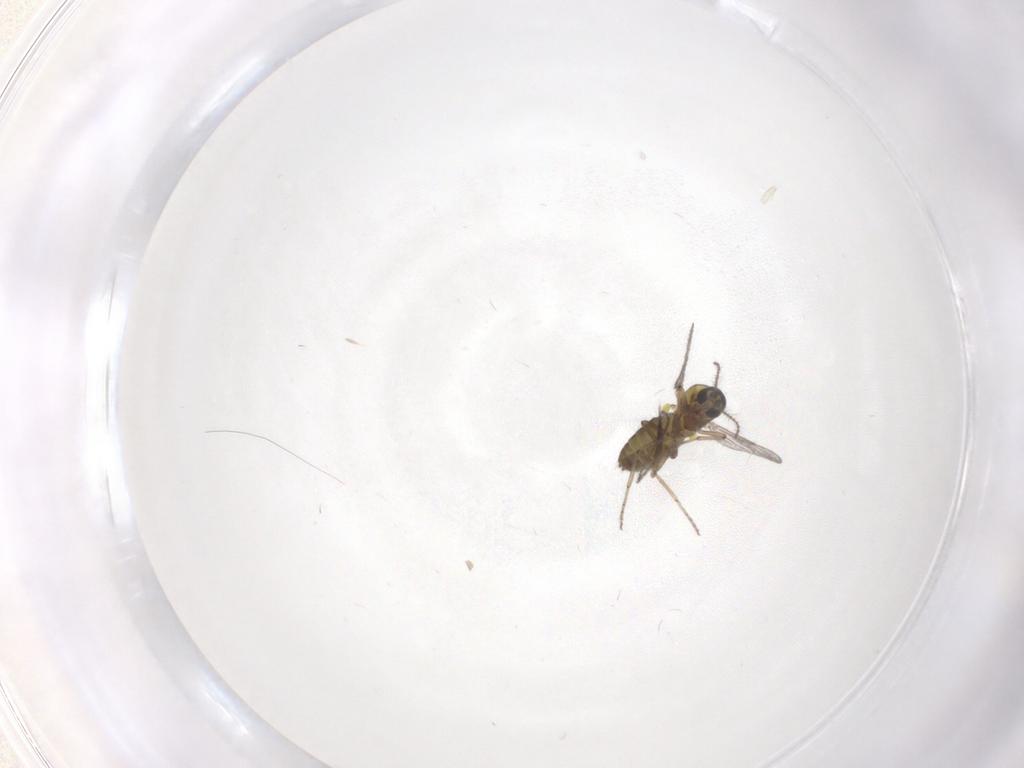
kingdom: Animalia
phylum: Arthropoda
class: Insecta
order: Diptera
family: Ceratopogonidae
